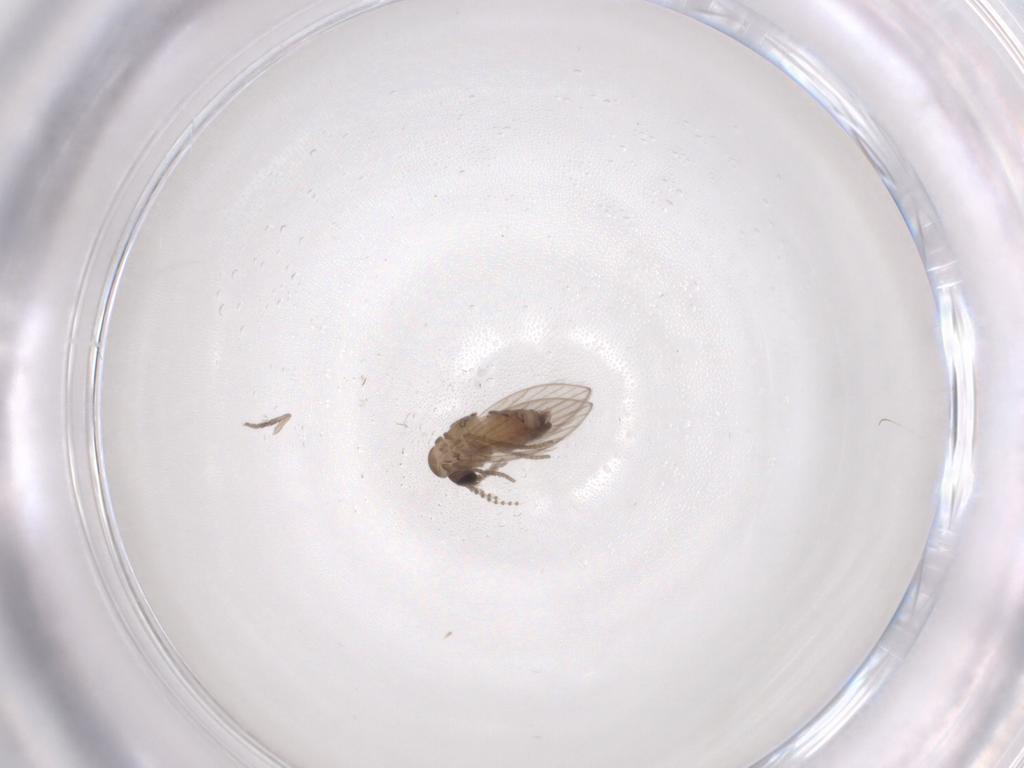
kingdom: Animalia
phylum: Arthropoda
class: Insecta
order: Diptera
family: Psychodidae
